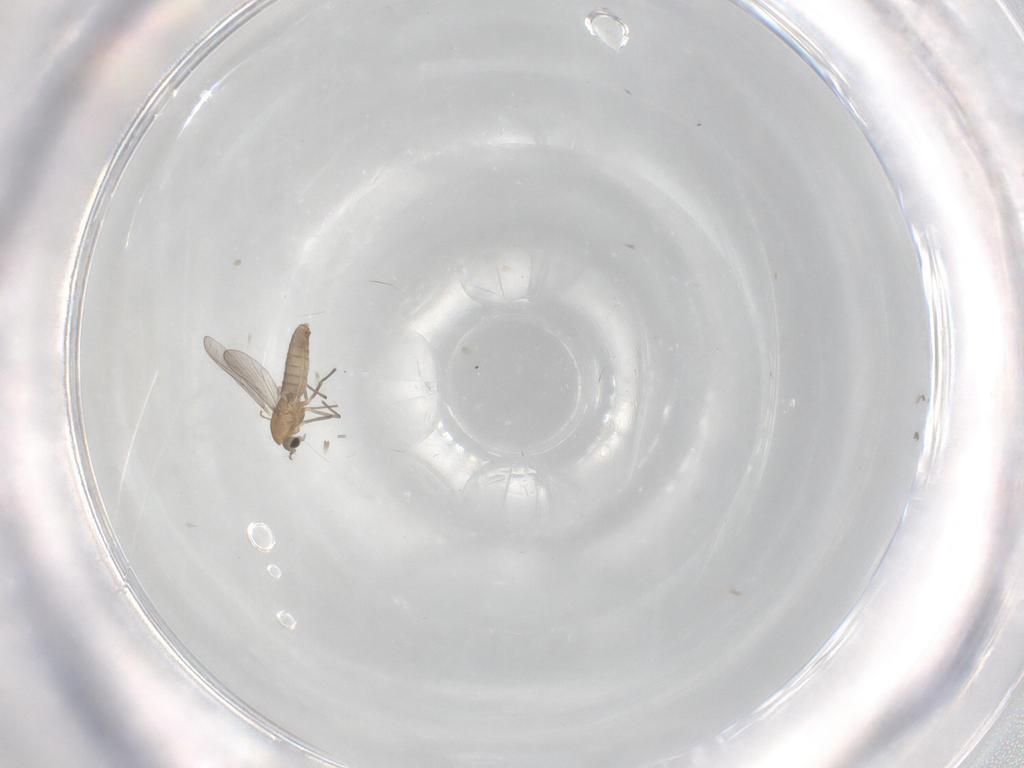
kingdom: Animalia
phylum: Arthropoda
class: Insecta
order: Diptera
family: Chironomidae
